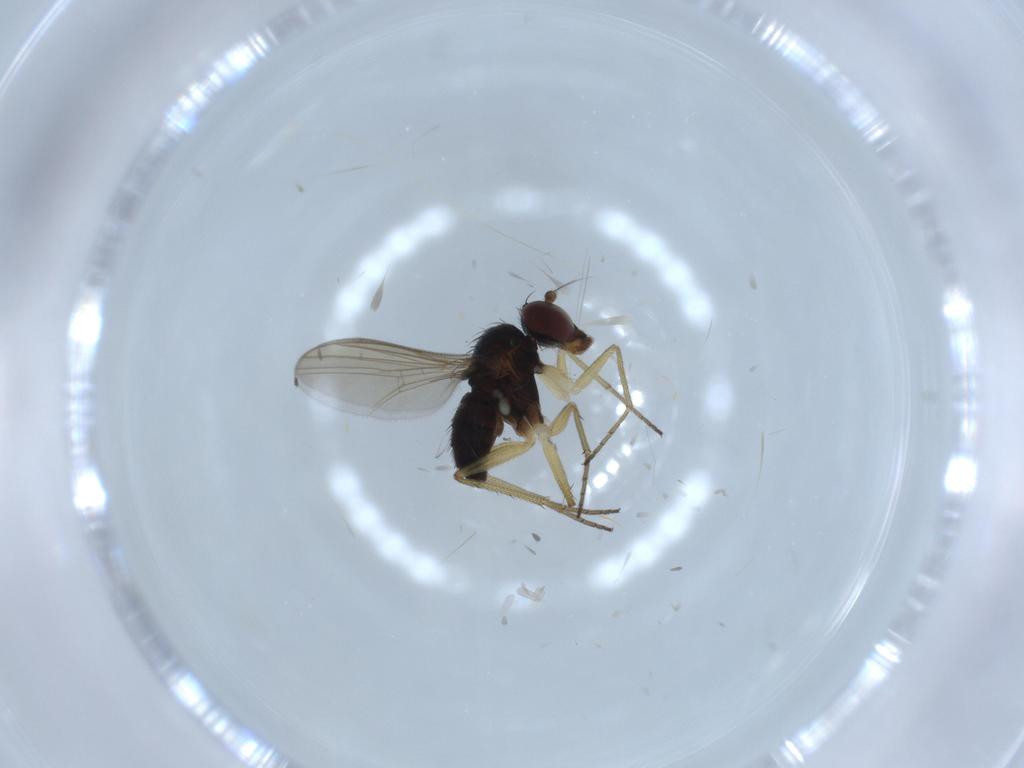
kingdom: Animalia
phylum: Arthropoda
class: Insecta
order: Diptera
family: Dolichopodidae
